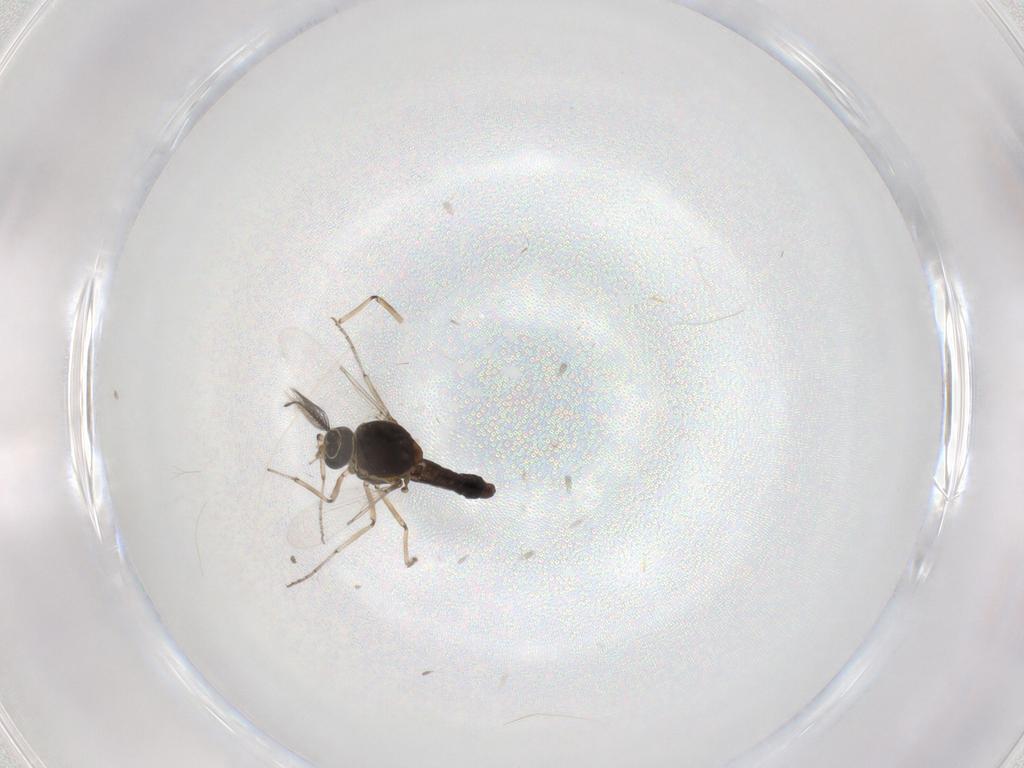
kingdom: Animalia
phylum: Arthropoda
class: Insecta
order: Diptera
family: Ceratopogonidae
